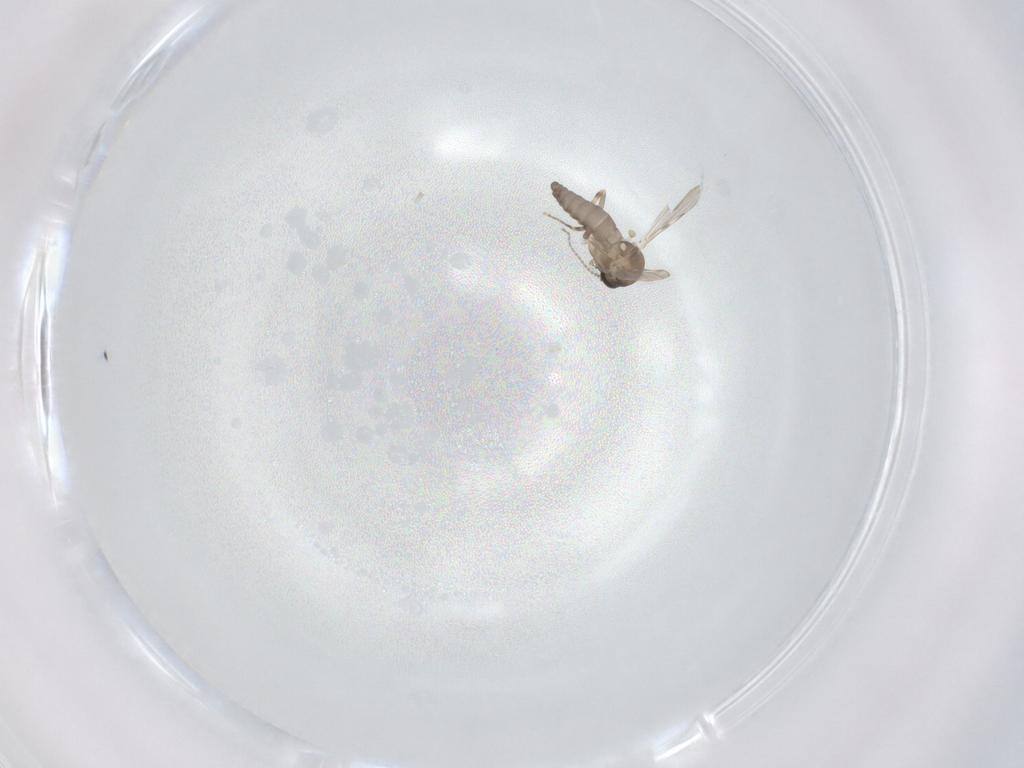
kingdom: Animalia
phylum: Arthropoda
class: Insecta
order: Diptera
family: Ceratopogonidae
